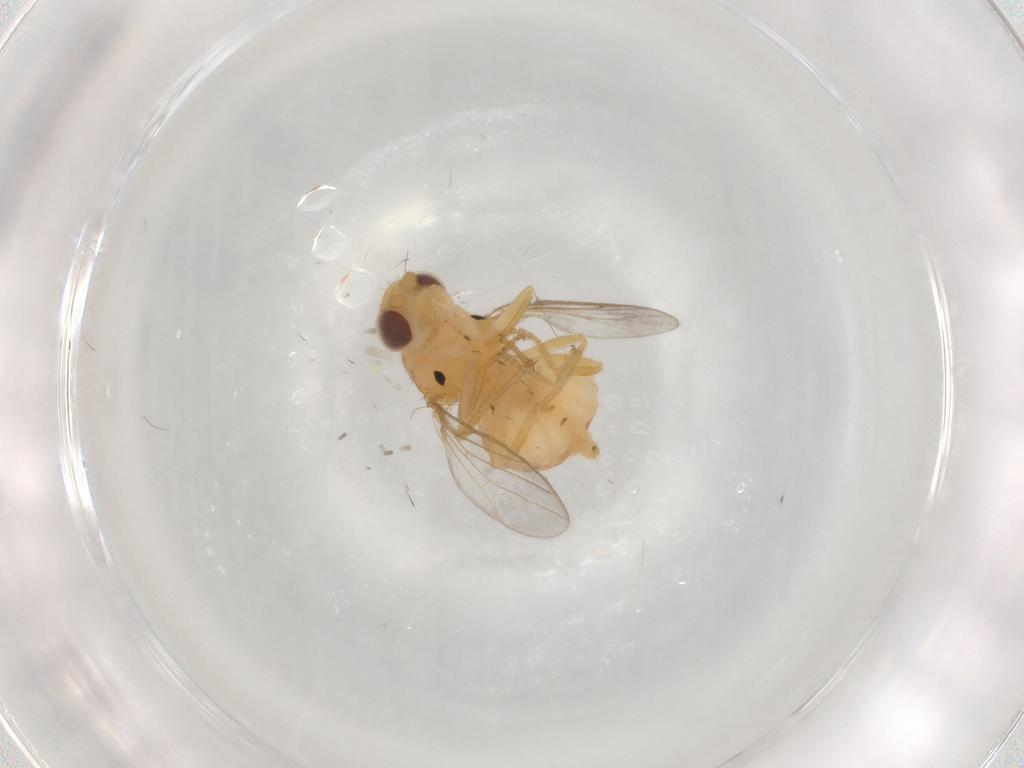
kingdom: Animalia
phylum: Arthropoda
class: Insecta
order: Diptera
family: Chloropidae
